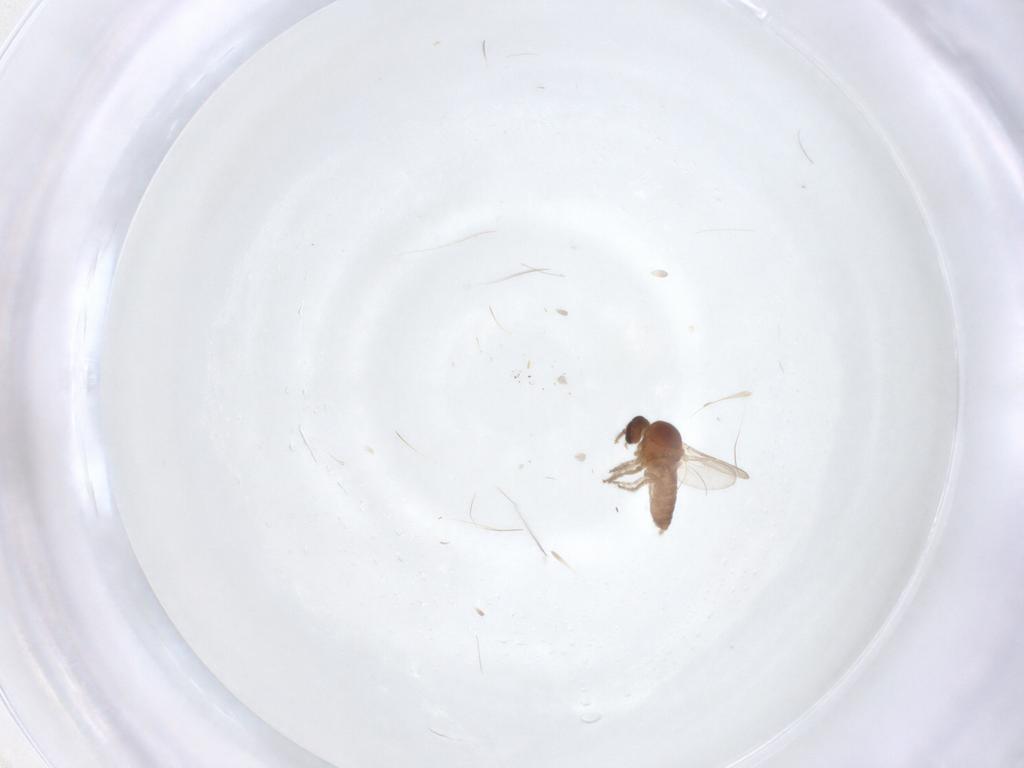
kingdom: Animalia
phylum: Arthropoda
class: Insecta
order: Diptera
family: Ceratopogonidae
